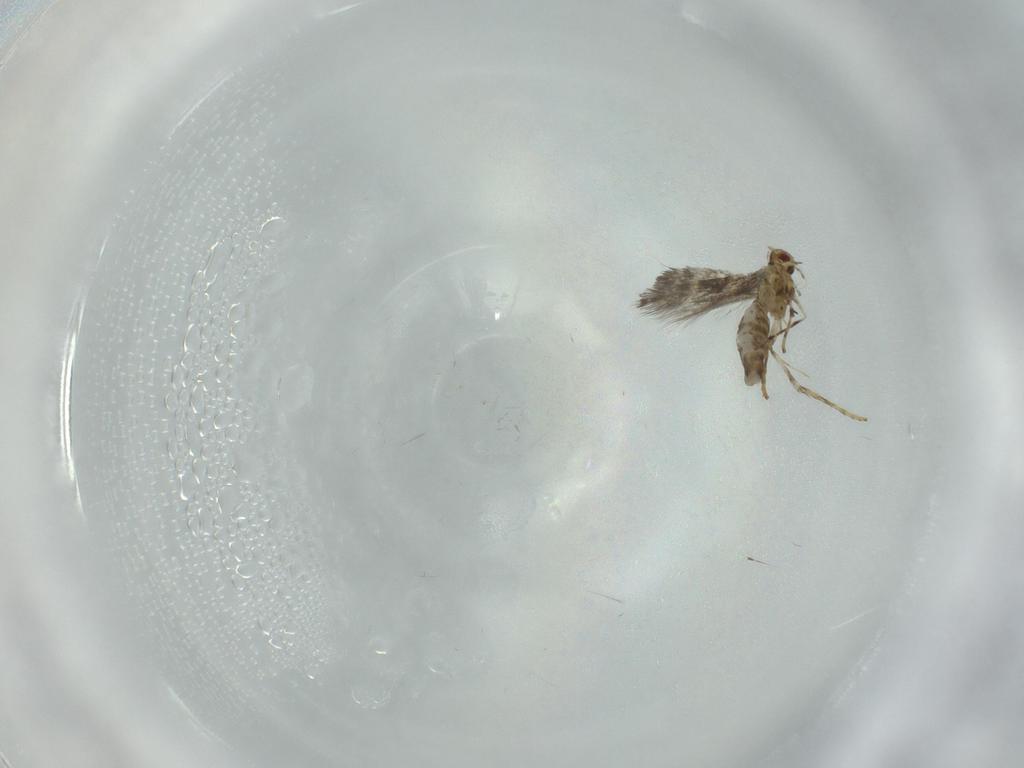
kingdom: Animalia
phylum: Arthropoda
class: Insecta
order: Lepidoptera
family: Gracillariidae
